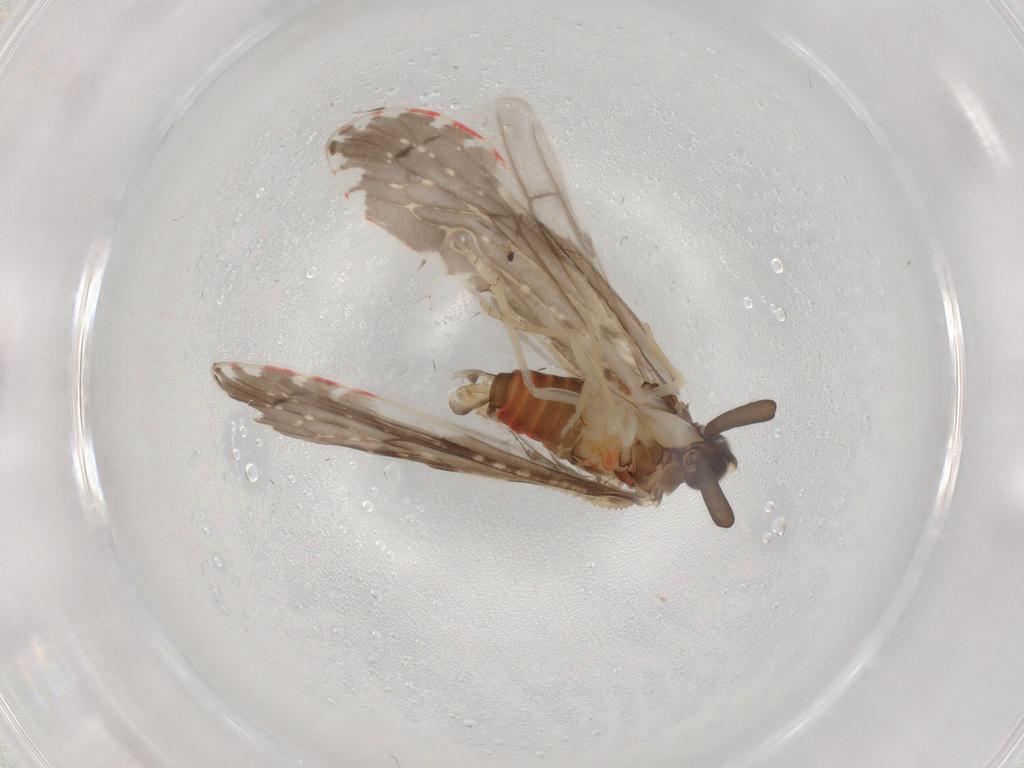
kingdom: Animalia
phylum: Arthropoda
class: Insecta
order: Hemiptera
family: Derbidae
